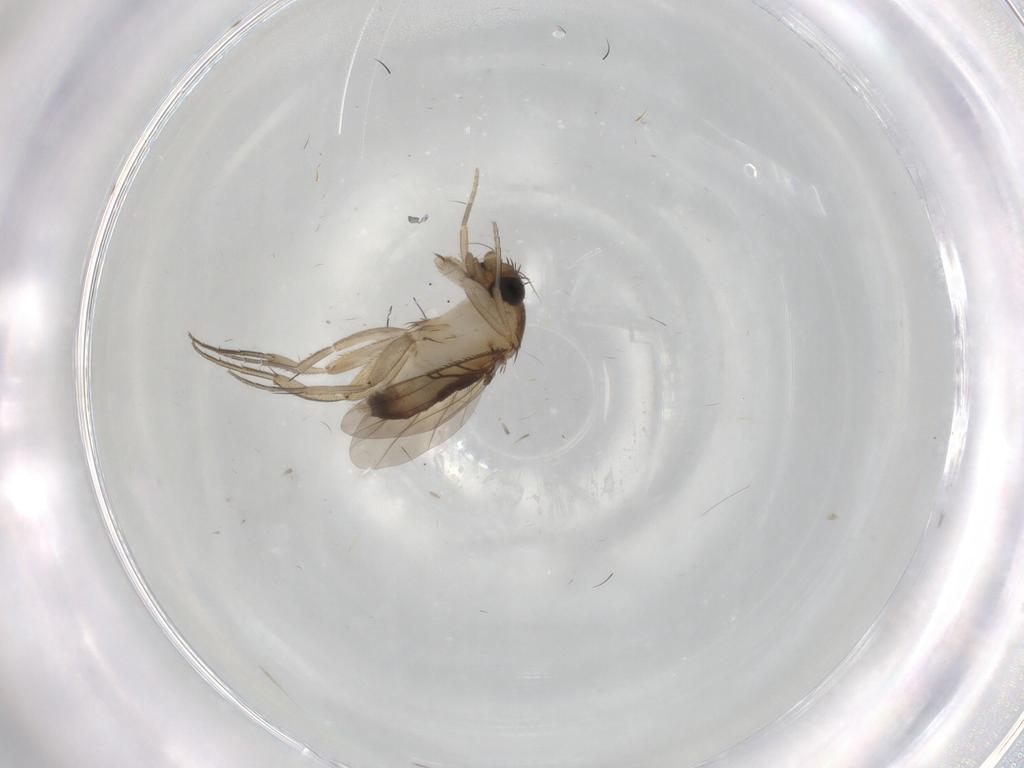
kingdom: Animalia
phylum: Arthropoda
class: Insecta
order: Diptera
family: Phoridae
